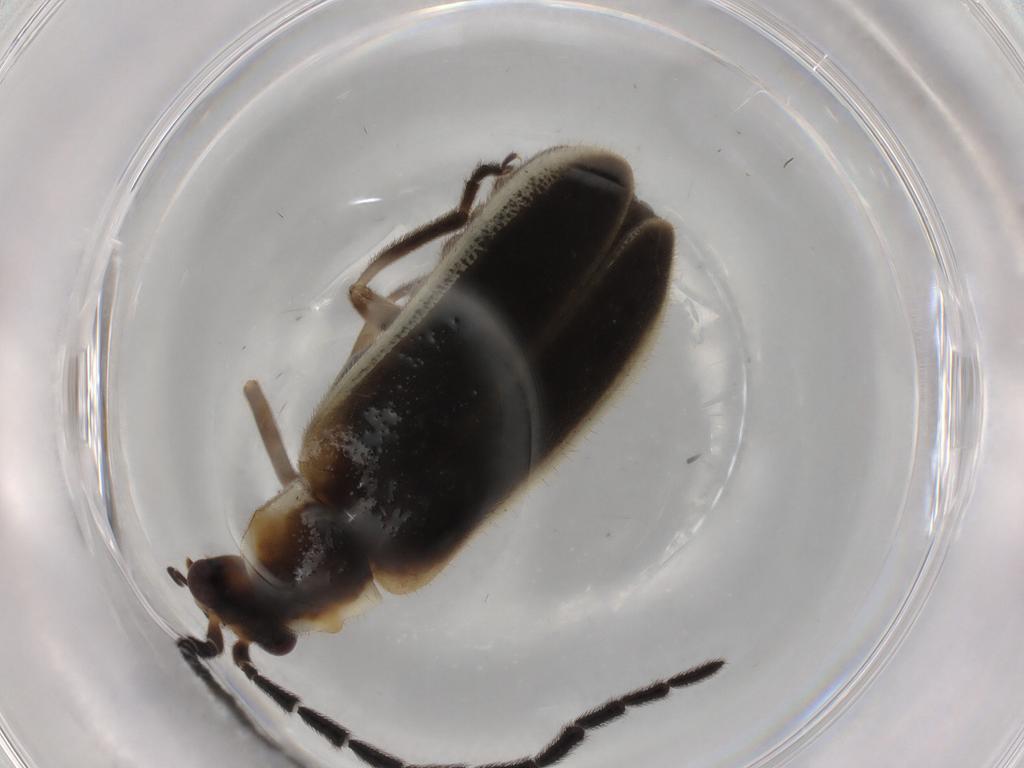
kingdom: Animalia
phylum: Arthropoda
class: Insecta
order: Coleoptera
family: Cantharidae
